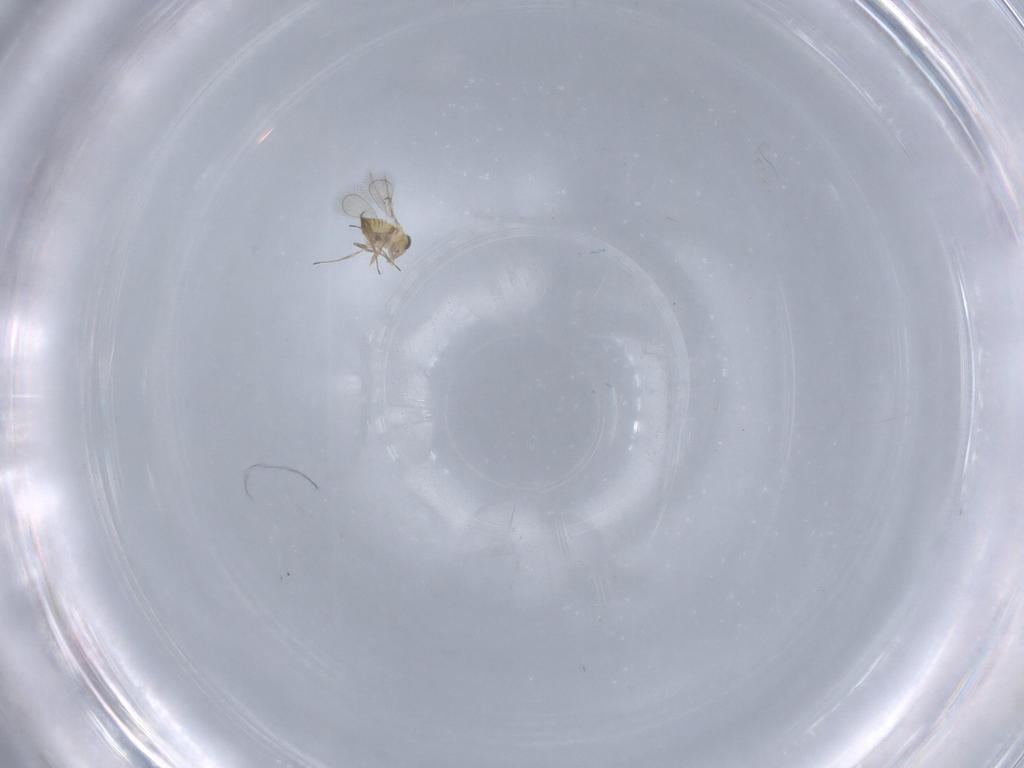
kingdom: Animalia
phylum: Arthropoda
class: Insecta
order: Hymenoptera
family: Trichogrammatidae
